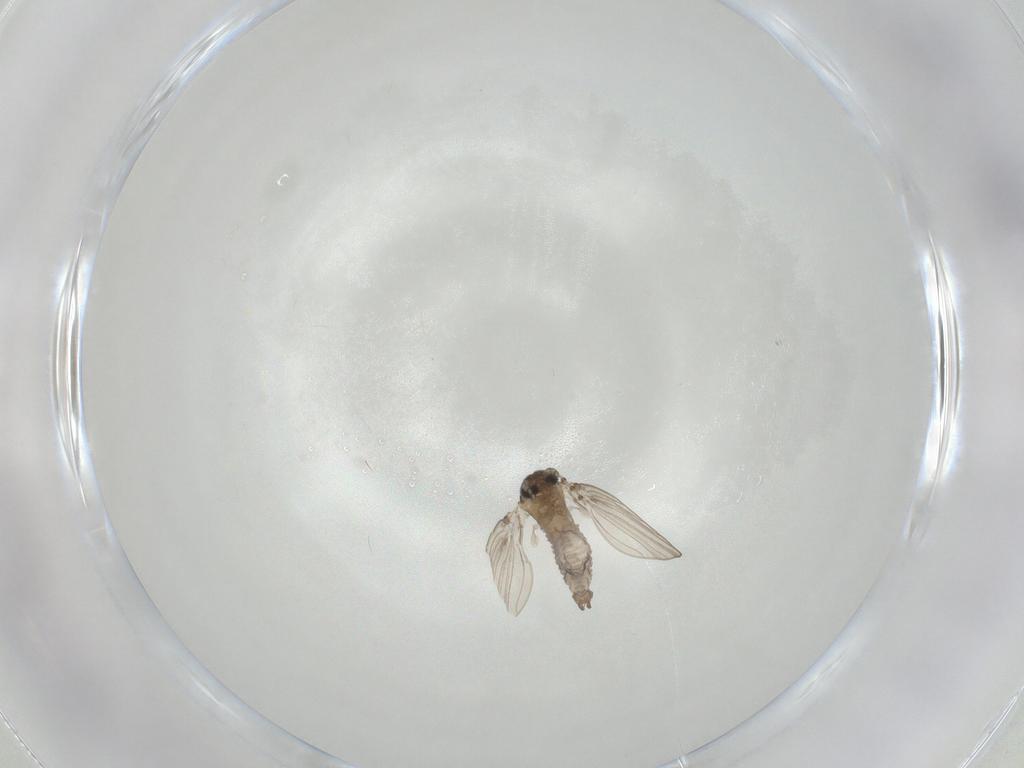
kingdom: Animalia
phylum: Arthropoda
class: Insecta
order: Diptera
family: Psychodidae
